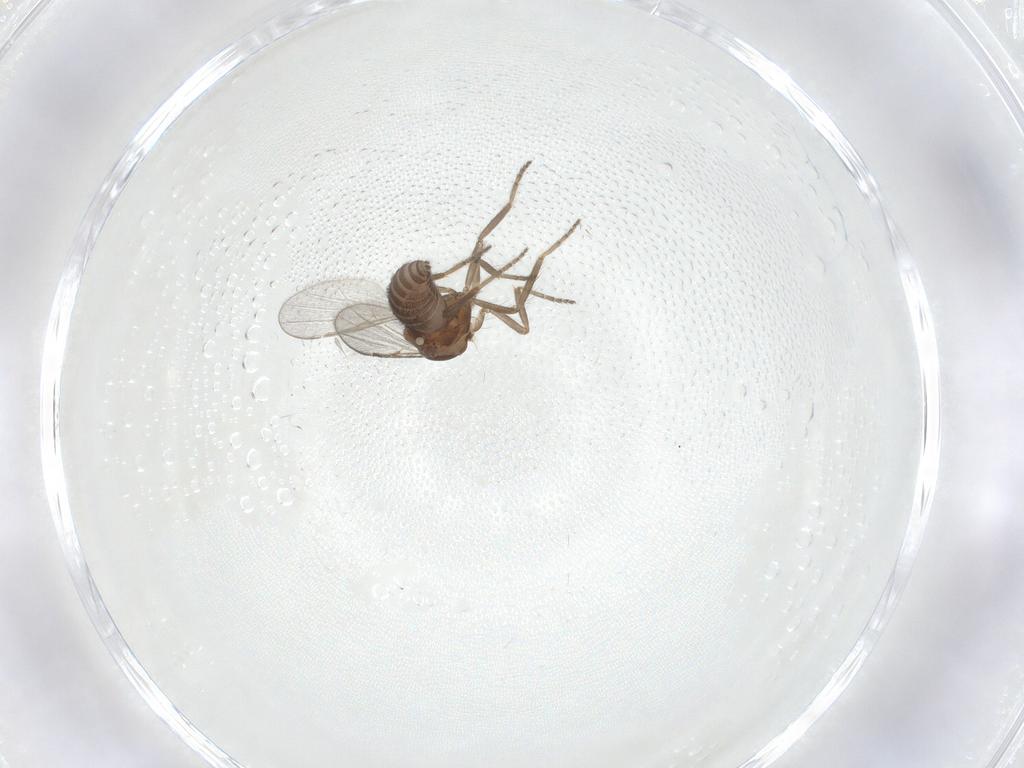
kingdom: Animalia
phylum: Arthropoda
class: Insecta
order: Diptera
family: Ceratopogonidae
